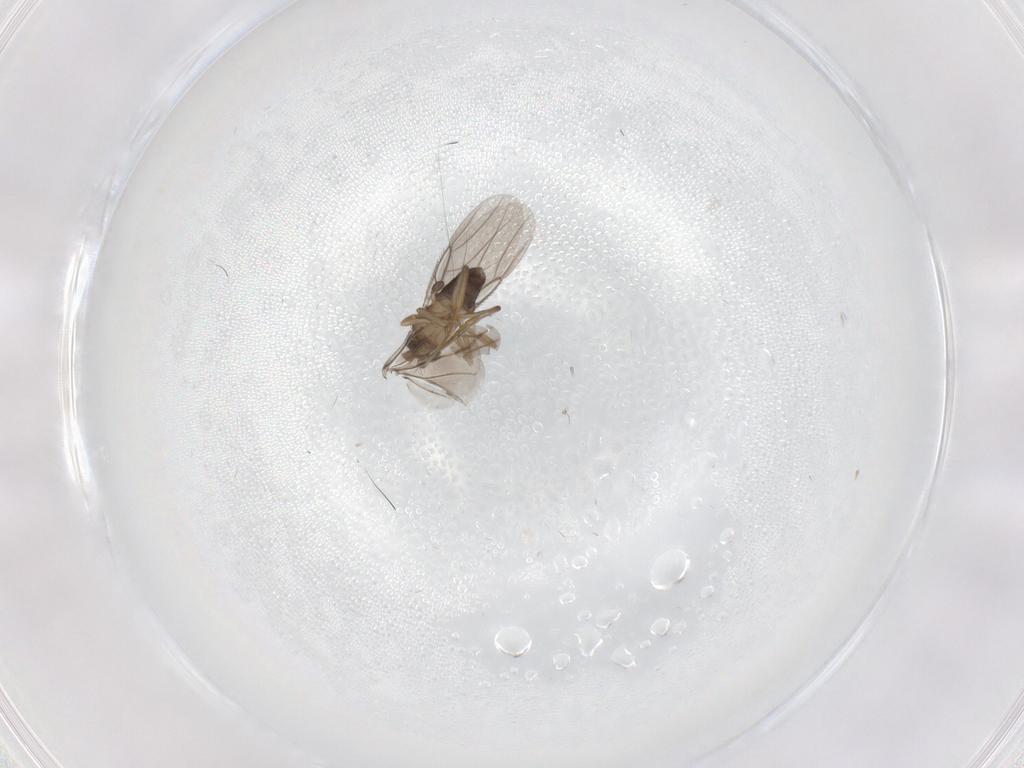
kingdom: Animalia
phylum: Arthropoda
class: Insecta
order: Diptera
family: Phoridae
